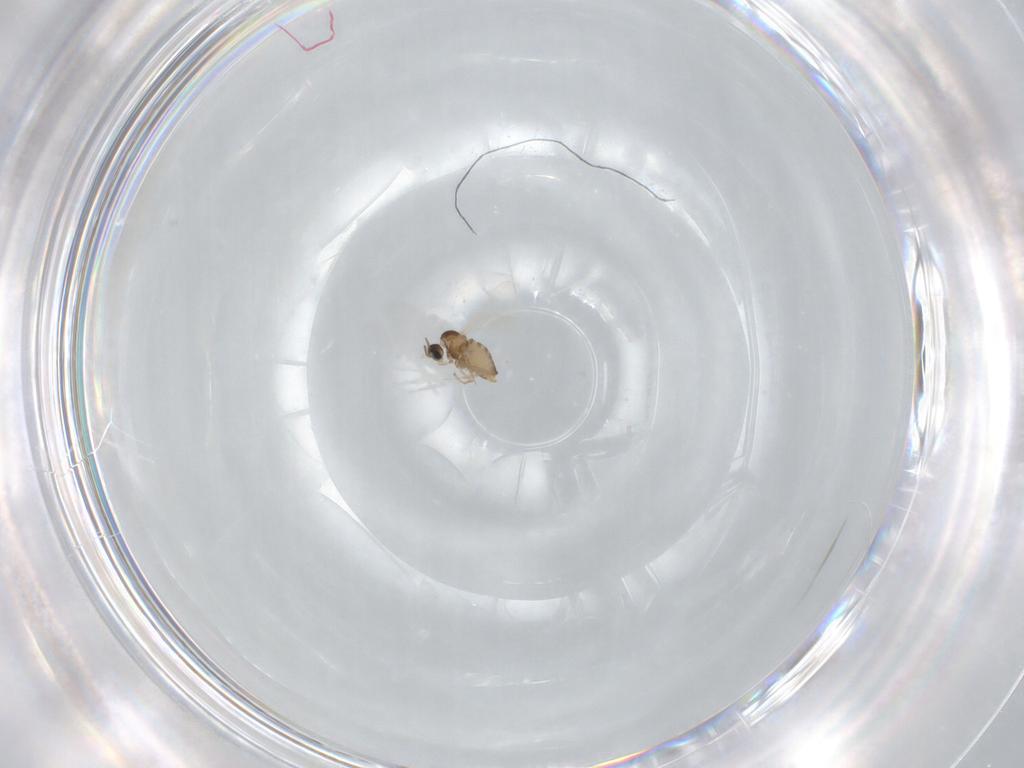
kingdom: Animalia
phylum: Arthropoda
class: Insecta
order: Diptera
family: Cecidomyiidae
